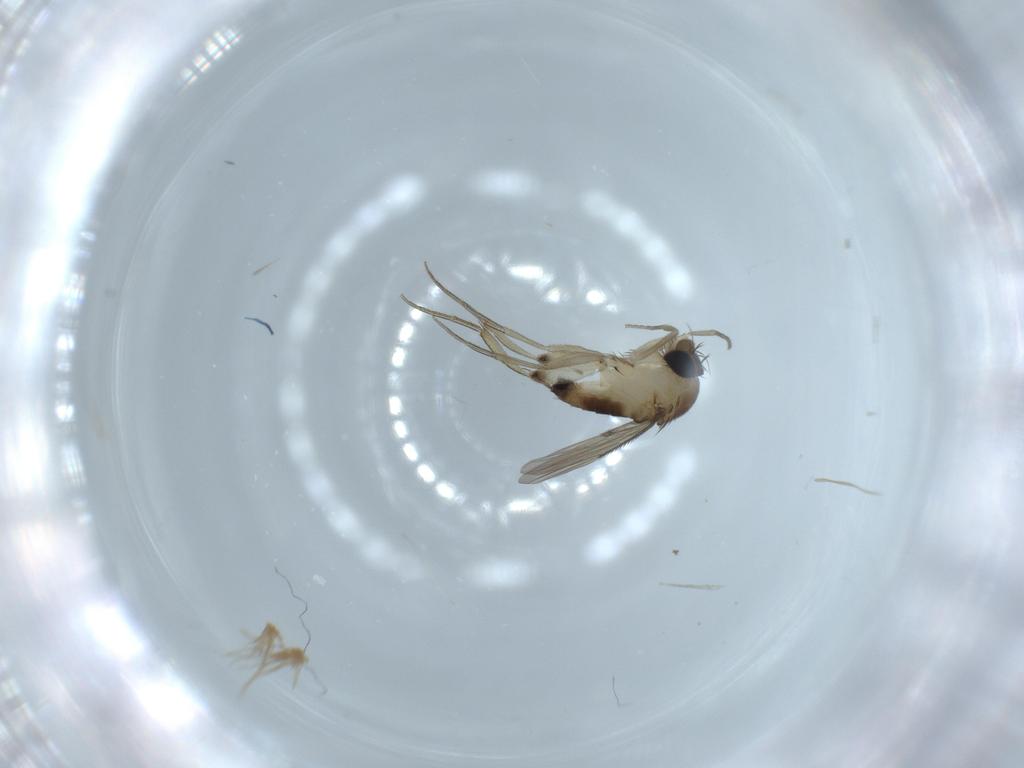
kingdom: Animalia
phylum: Arthropoda
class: Insecta
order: Diptera
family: Phoridae
